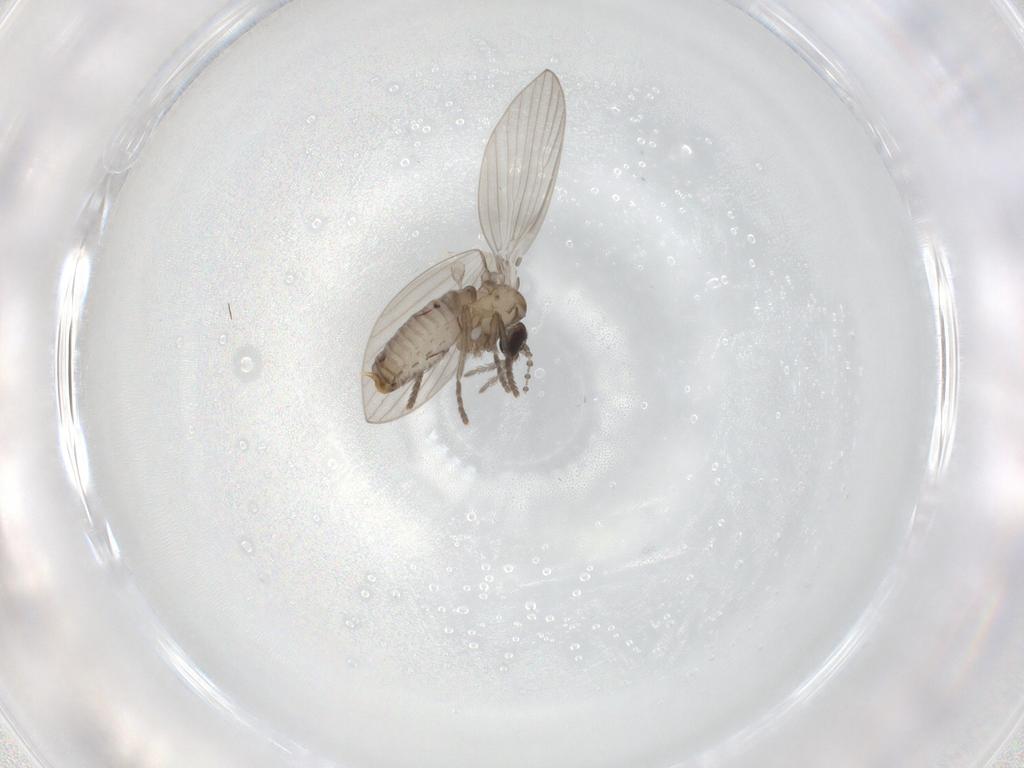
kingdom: Animalia
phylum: Arthropoda
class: Insecta
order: Diptera
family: Psychodidae
